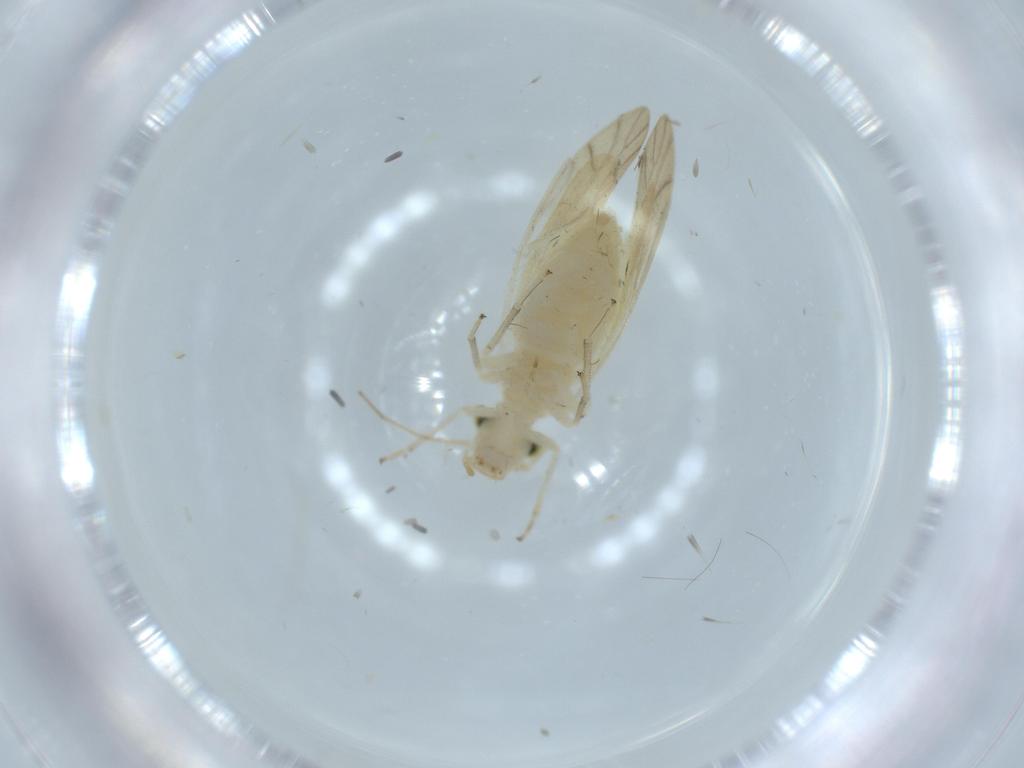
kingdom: Animalia
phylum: Arthropoda
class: Insecta
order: Psocodea
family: Caeciliusidae
